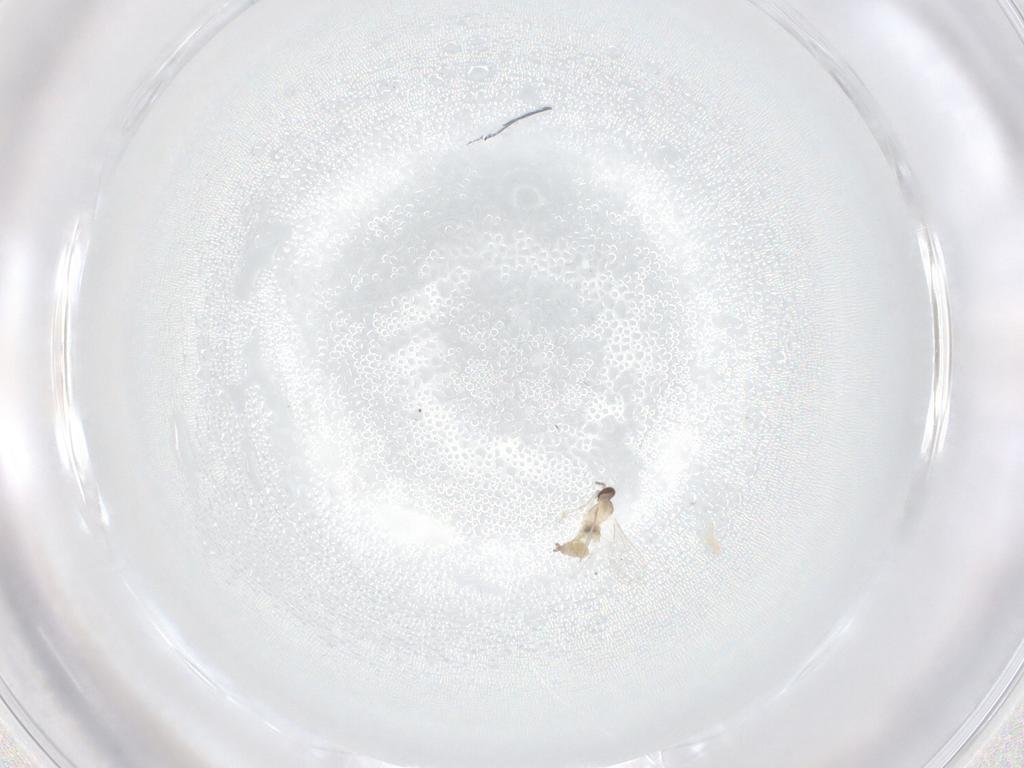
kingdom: Animalia
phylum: Arthropoda
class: Insecta
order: Diptera
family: Cecidomyiidae
